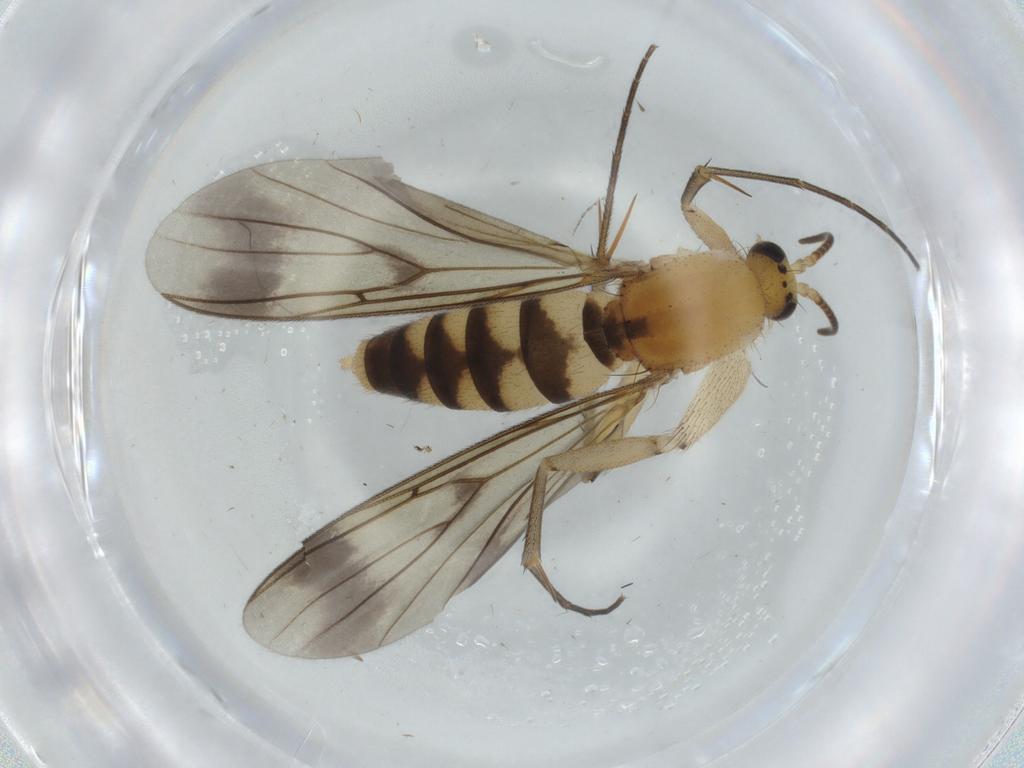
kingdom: Animalia
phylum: Arthropoda
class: Insecta
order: Diptera
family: Mycetophilidae
